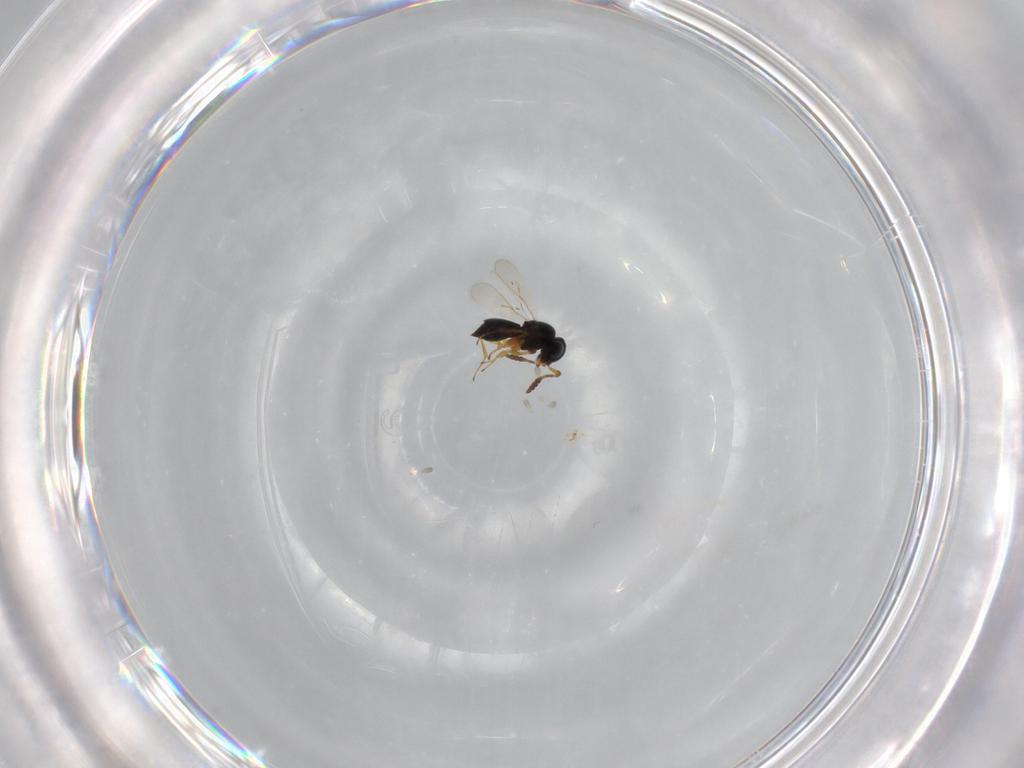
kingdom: Animalia
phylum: Arthropoda
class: Insecta
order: Hymenoptera
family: Scelionidae
